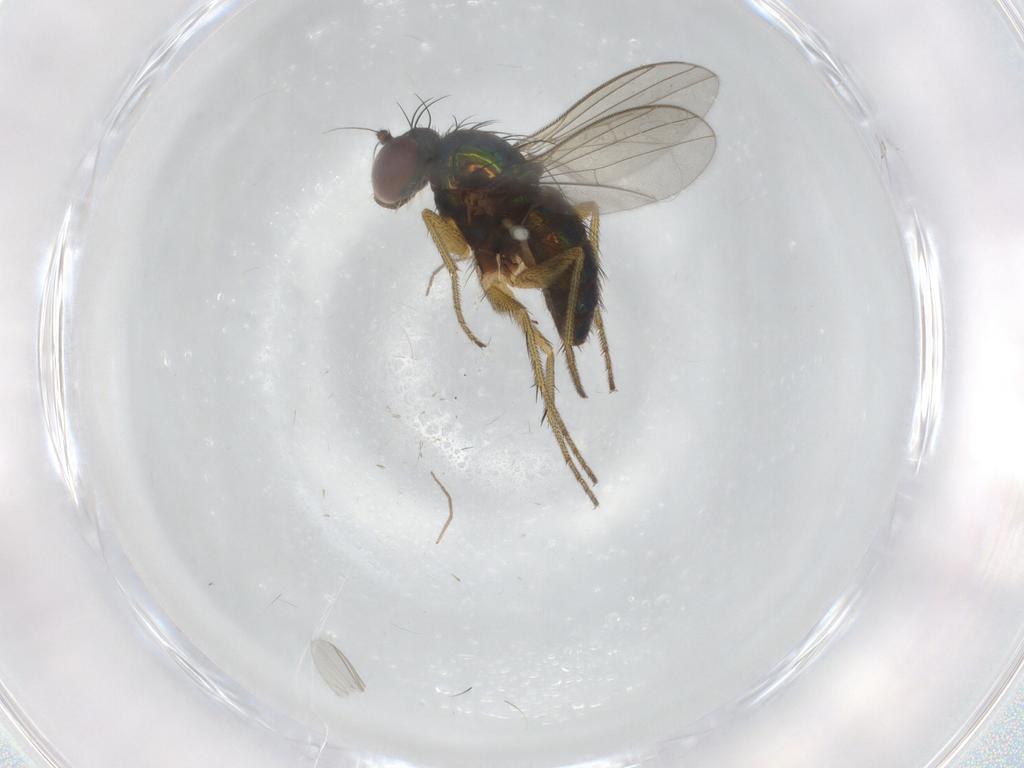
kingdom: Animalia
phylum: Arthropoda
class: Insecta
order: Diptera
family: Dolichopodidae
